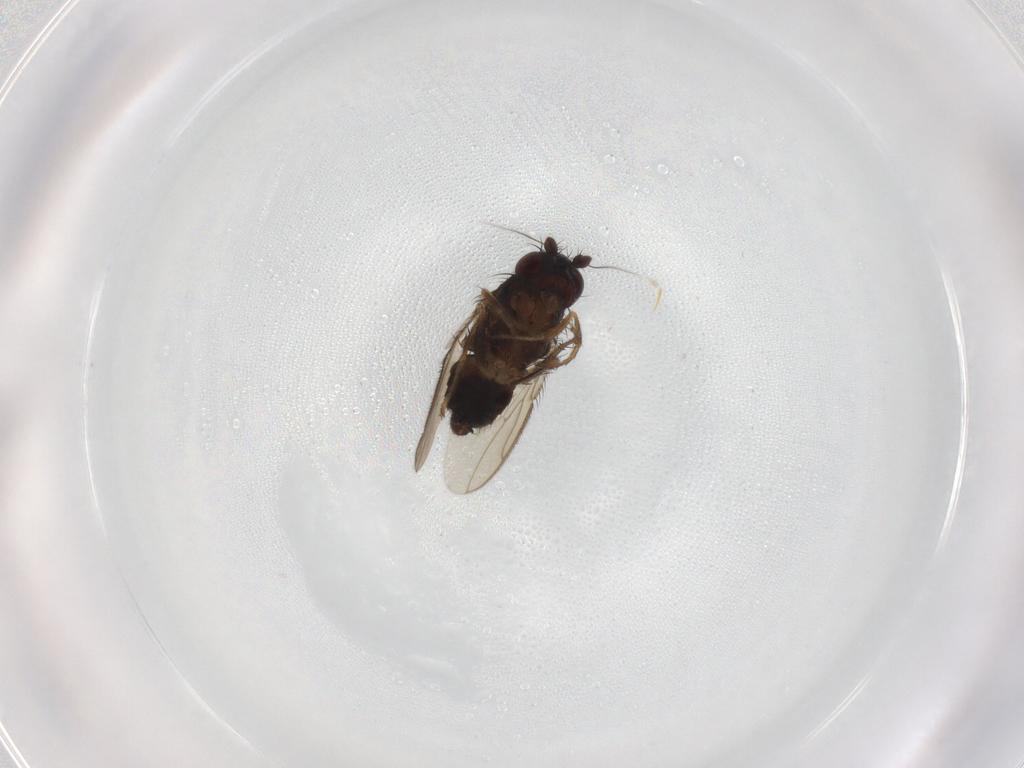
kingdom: Animalia
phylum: Arthropoda
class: Insecta
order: Diptera
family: Sphaeroceridae
